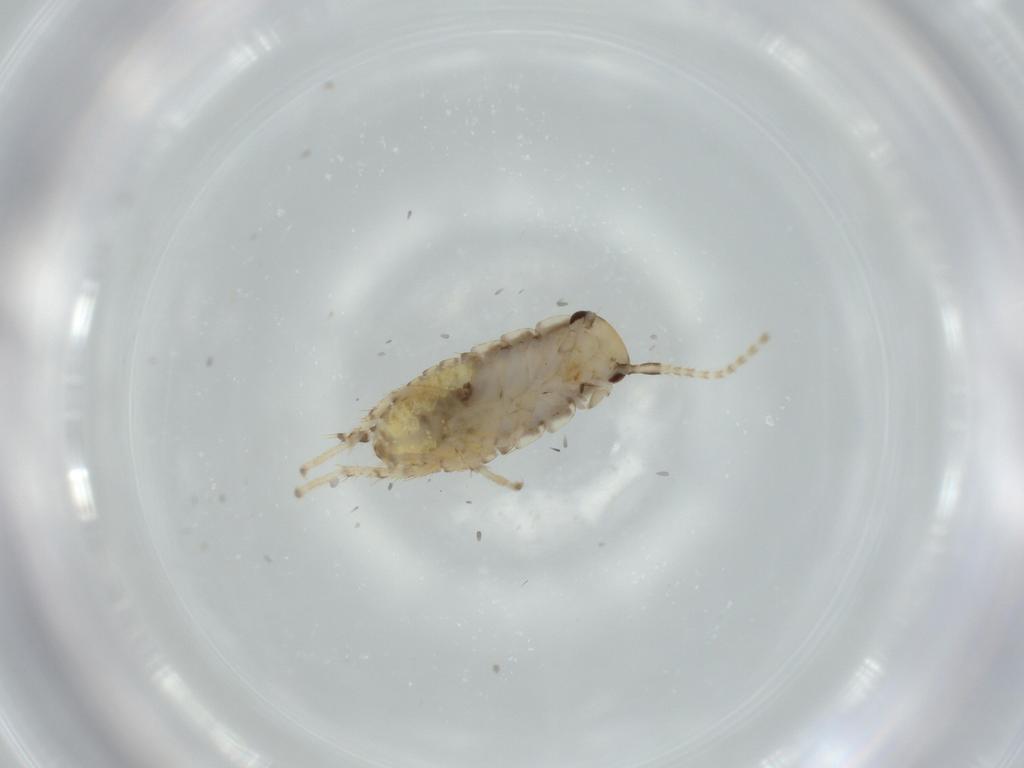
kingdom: Animalia
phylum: Arthropoda
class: Insecta
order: Blattodea
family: Ectobiidae
